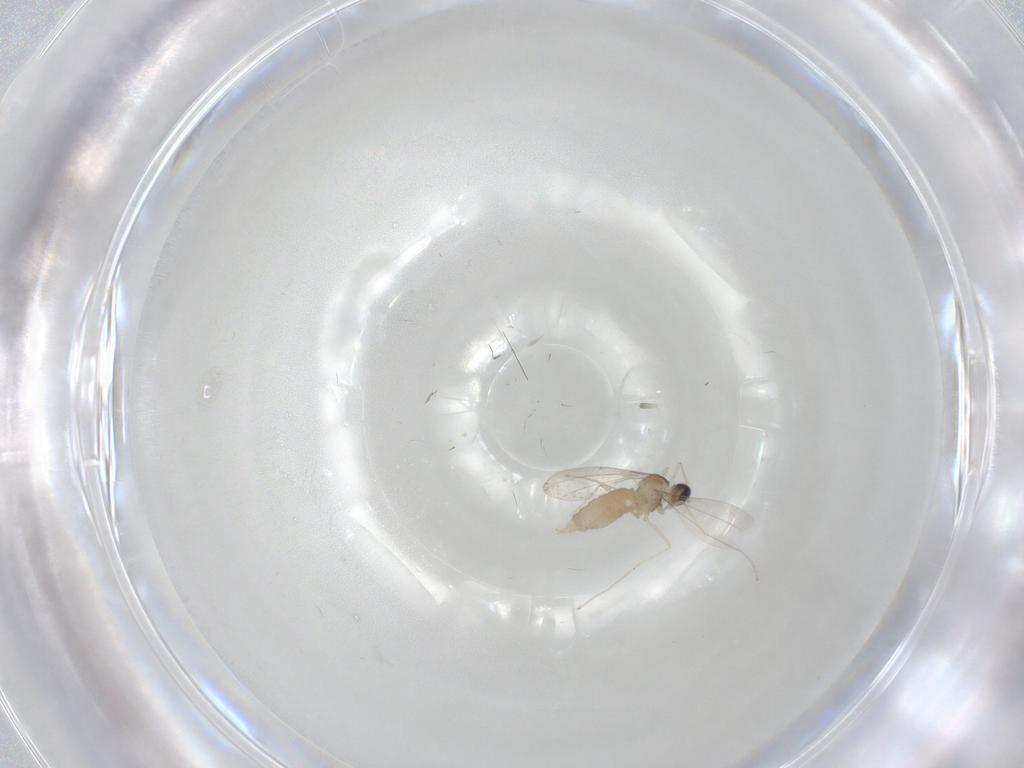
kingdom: Animalia
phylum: Arthropoda
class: Insecta
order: Diptera
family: Cecidomyiidae
